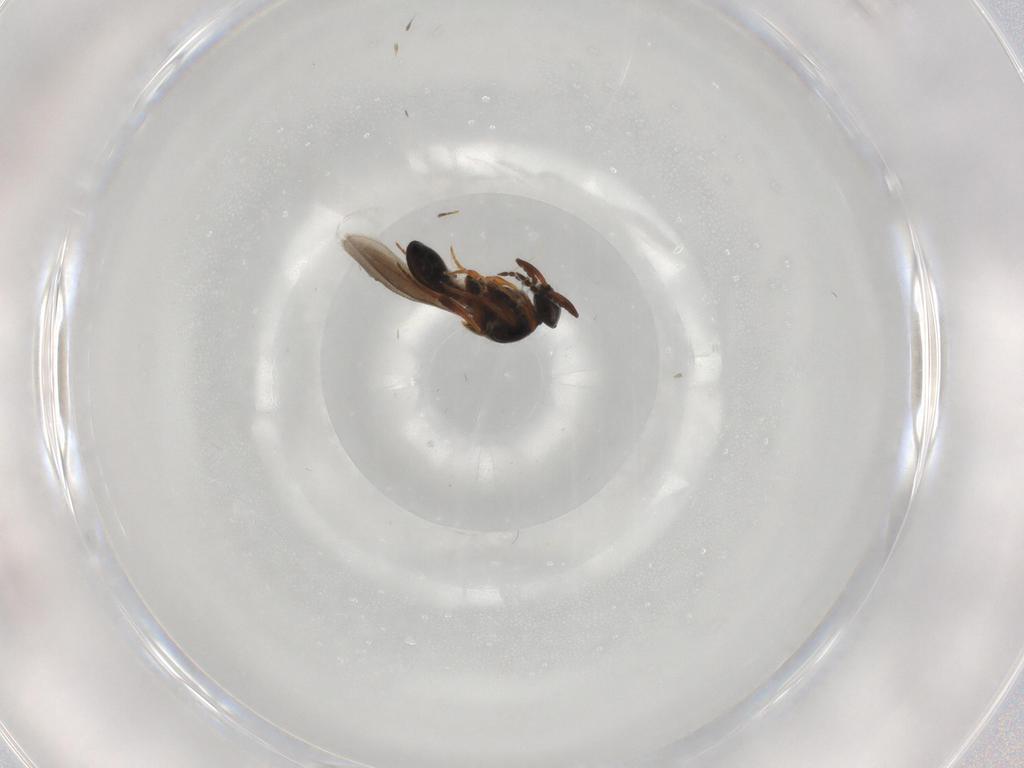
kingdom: Animalia
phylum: Arthropoda
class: Insecta
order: Hymenoptera
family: Platygastridae
